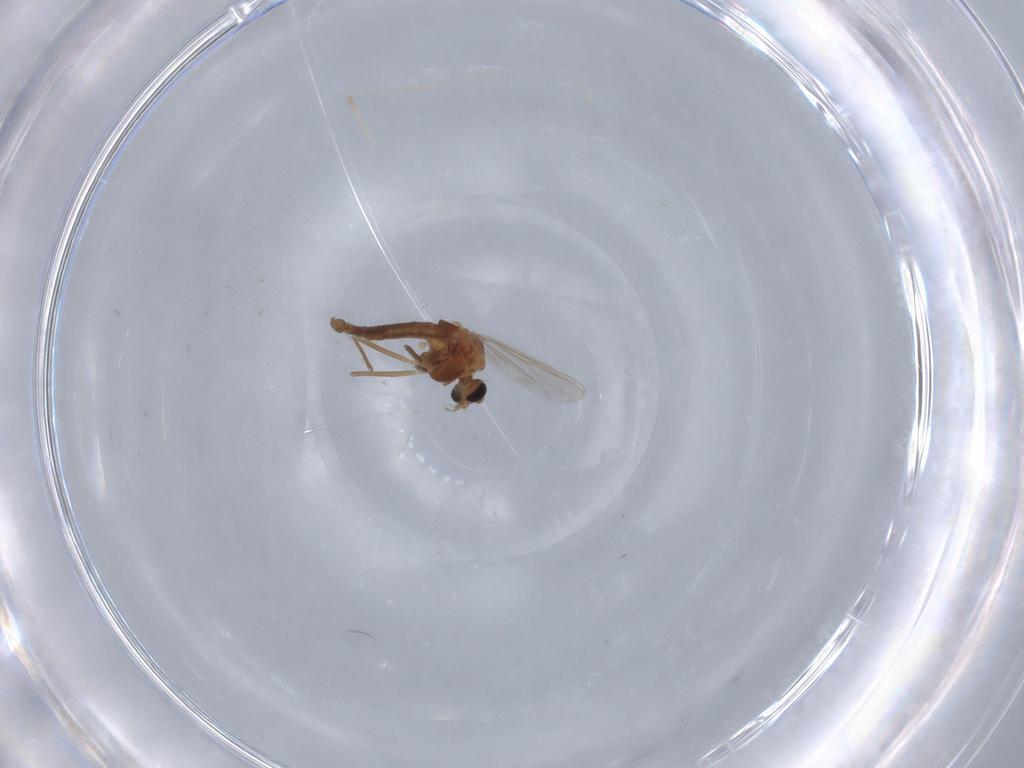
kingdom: Animalia
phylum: Arthropoda
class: Insecta
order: Diptera
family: Chironomidae
